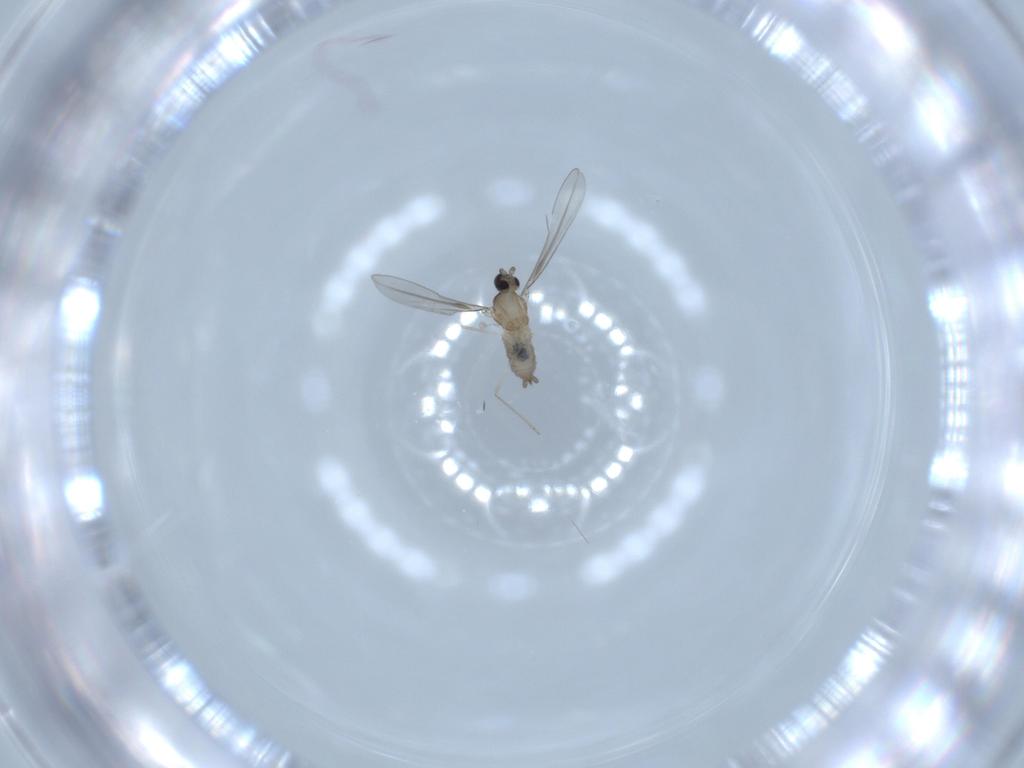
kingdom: Animalia
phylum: Arthropoda
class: Insecta
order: Diptera
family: Cecidomyiidae
